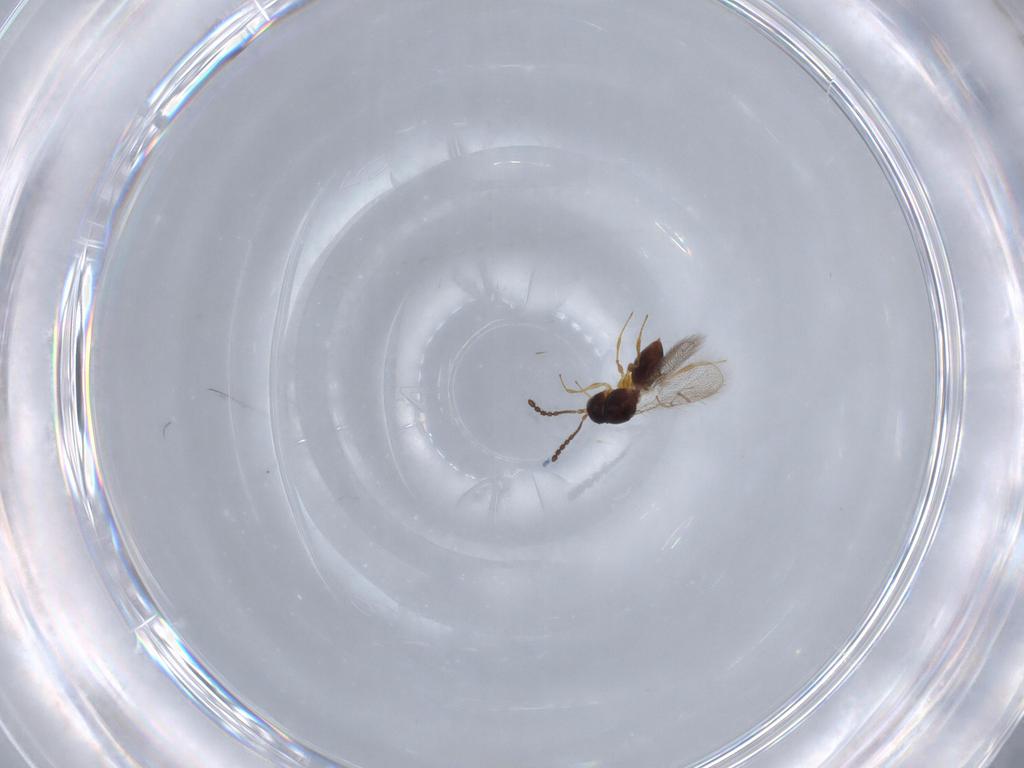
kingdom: Animalia
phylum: Arthropoda
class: Insecta
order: Hymenoptera
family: Figitidae
